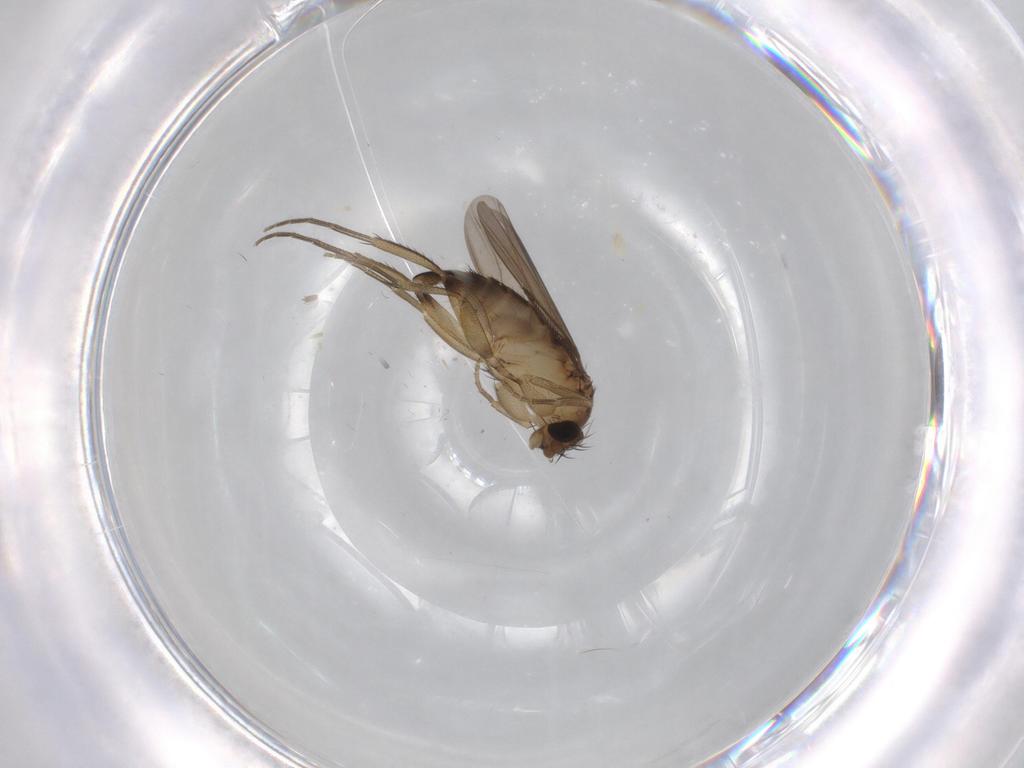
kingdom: Animalia
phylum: Arthropoda
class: Insecta
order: Diptera
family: Phoridae
